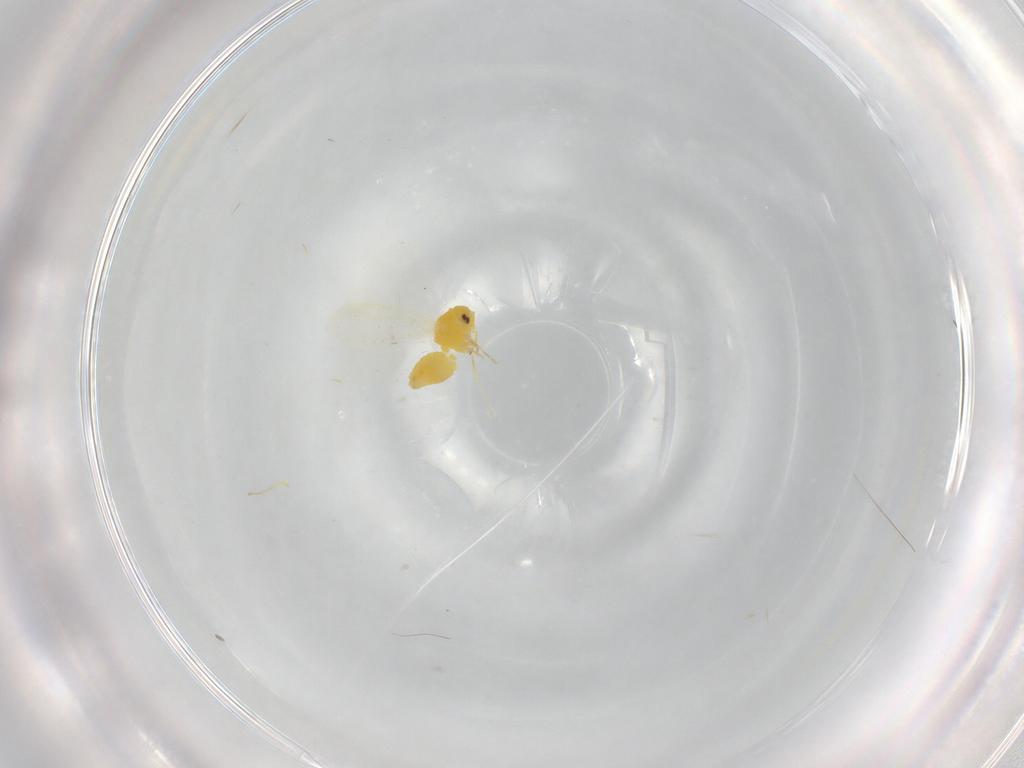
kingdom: Animalia
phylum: Arthropoda
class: Insecta
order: Hemiptera
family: Aleyrodidae
